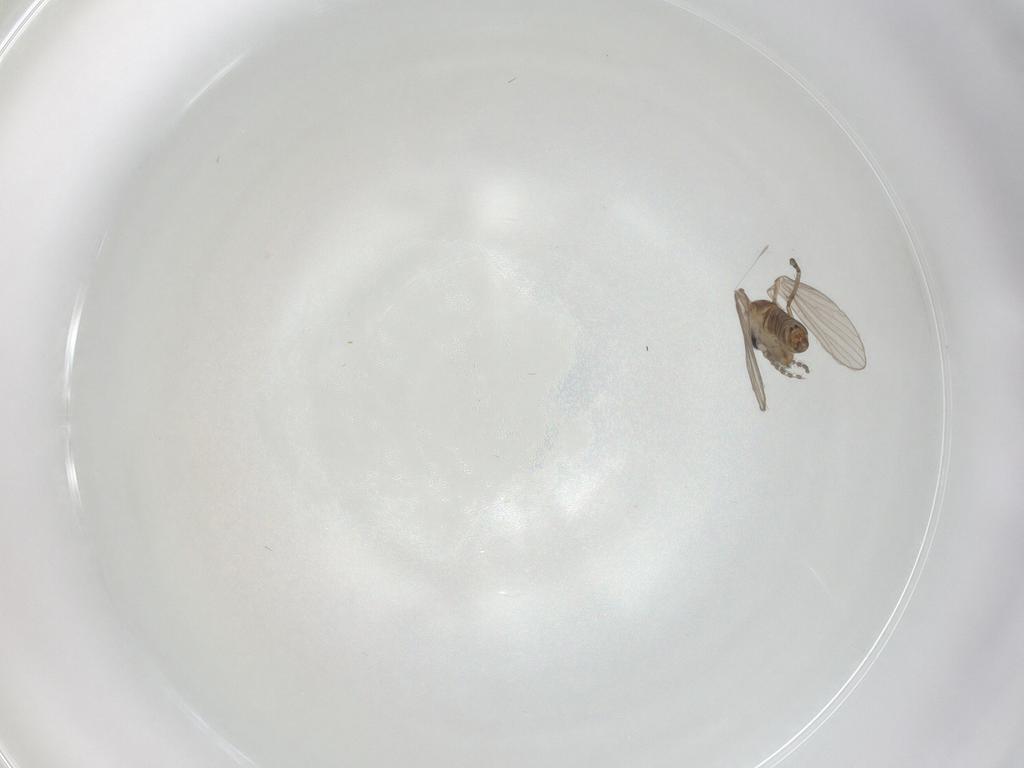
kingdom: Animalia
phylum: Arthropoda
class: Insecta
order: Diptera
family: Psychodidae
